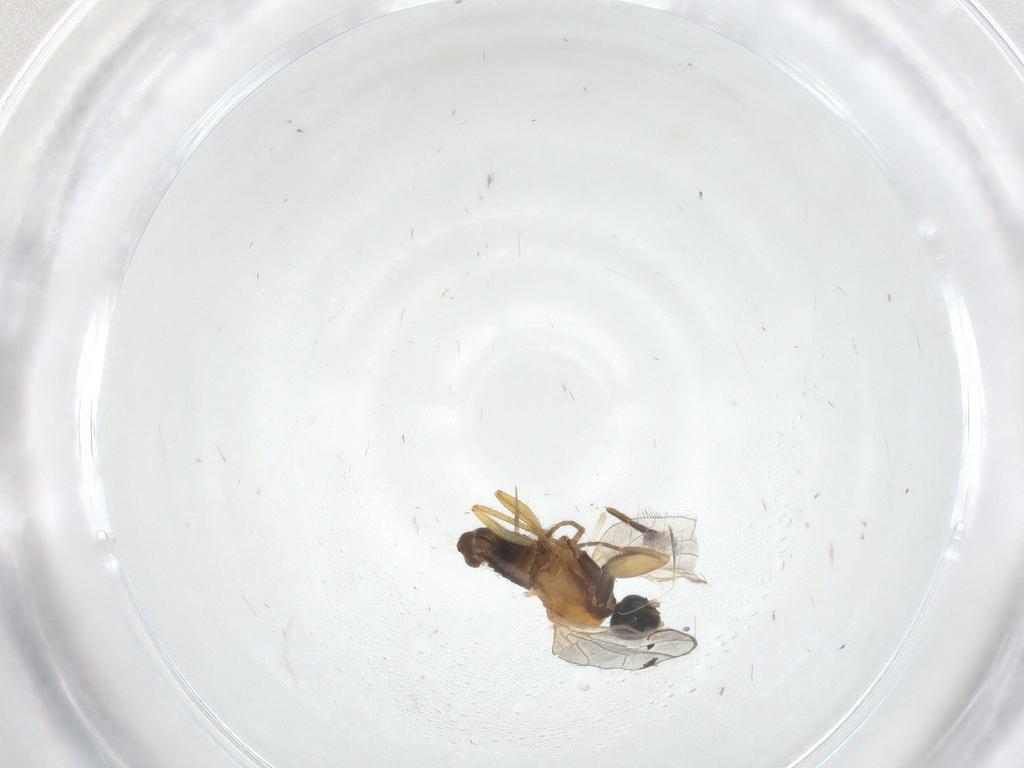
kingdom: Animalia
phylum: Arthropoda
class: Insecta
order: Diptera
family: Empididae
